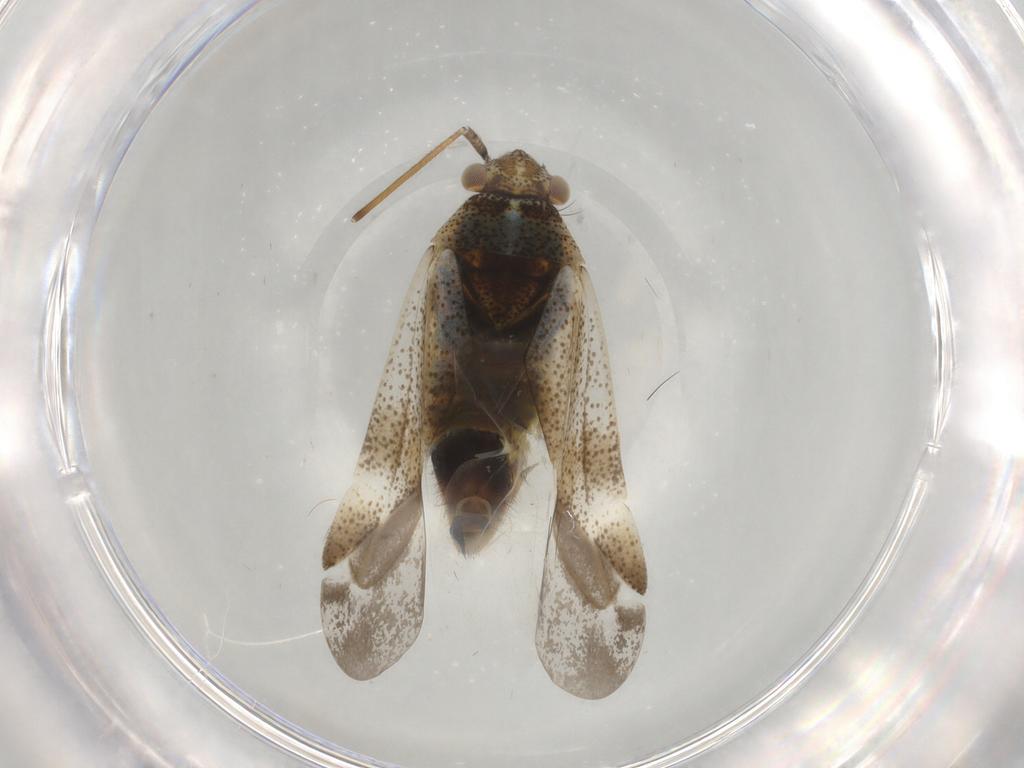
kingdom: Animalia
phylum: Arthropoda
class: Insecta
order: Hemiptera
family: Miridae
